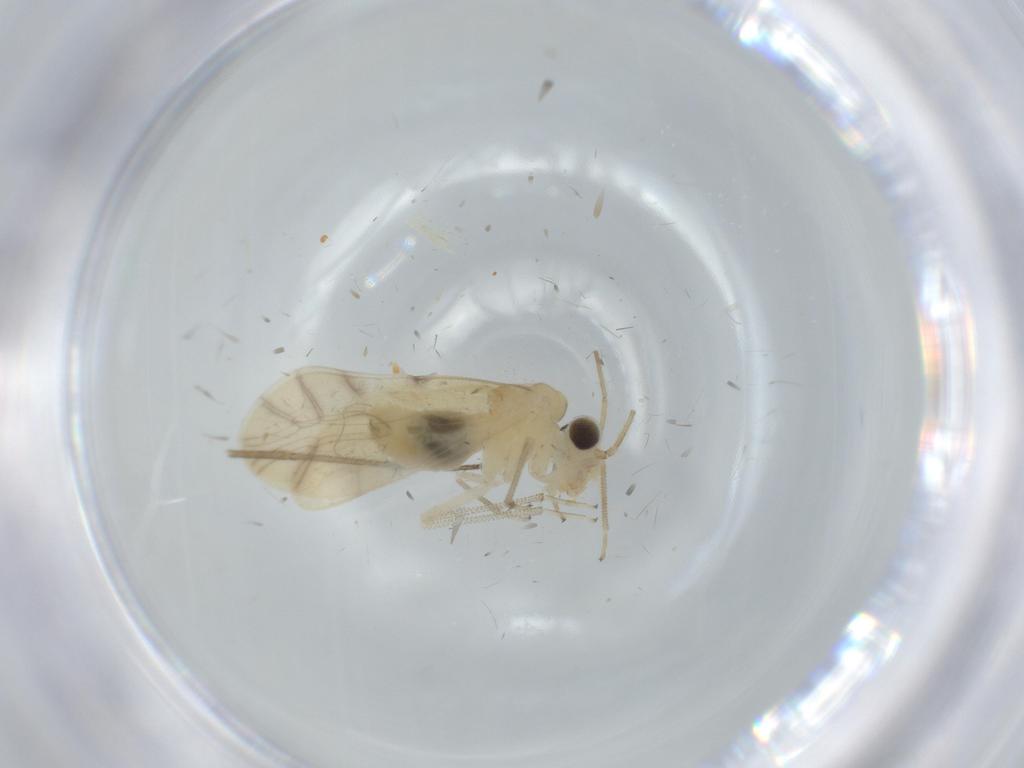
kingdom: Animalia
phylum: Arthropoda
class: Insecta
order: Psocodea
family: Caeciliusidae
